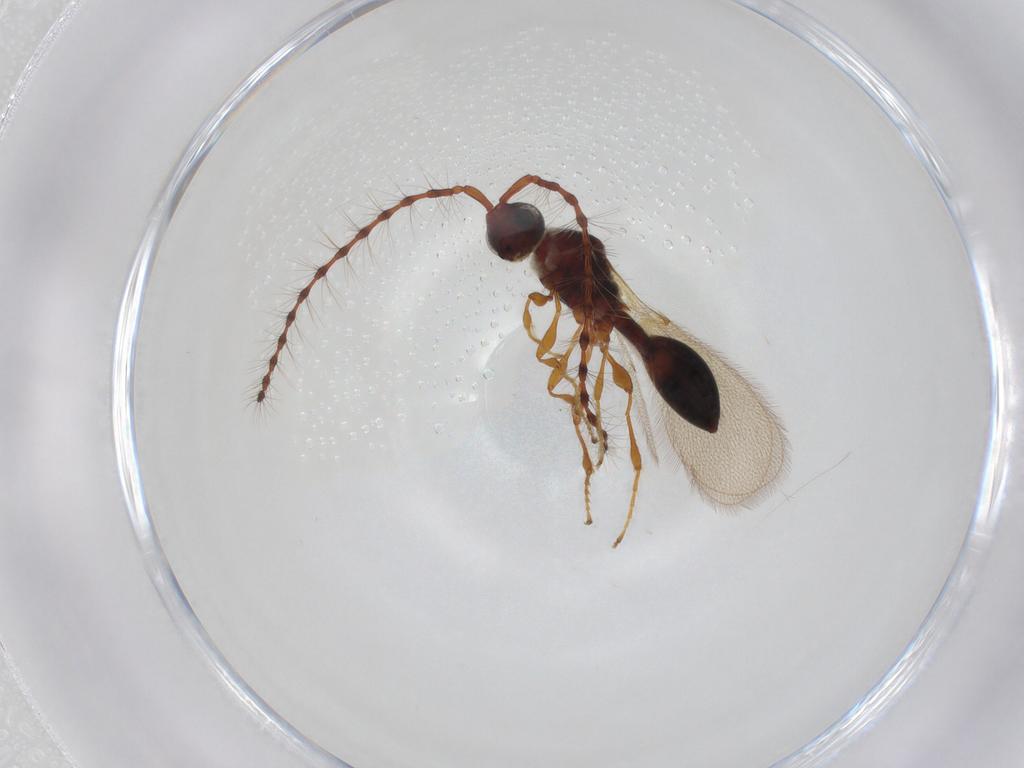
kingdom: Animalia
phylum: Arthropoda
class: Insecta
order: Hymenoptera
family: Diapriidae
